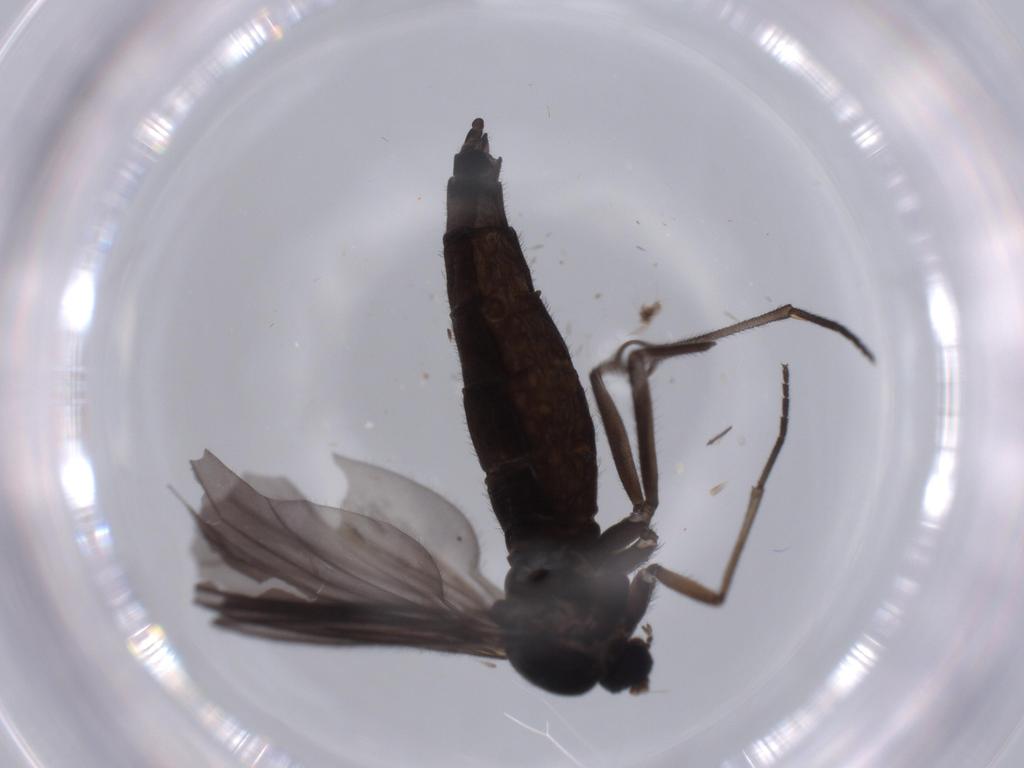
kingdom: Animalia
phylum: Arthropoda
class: Insecta
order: Diptera
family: Sciaridae
